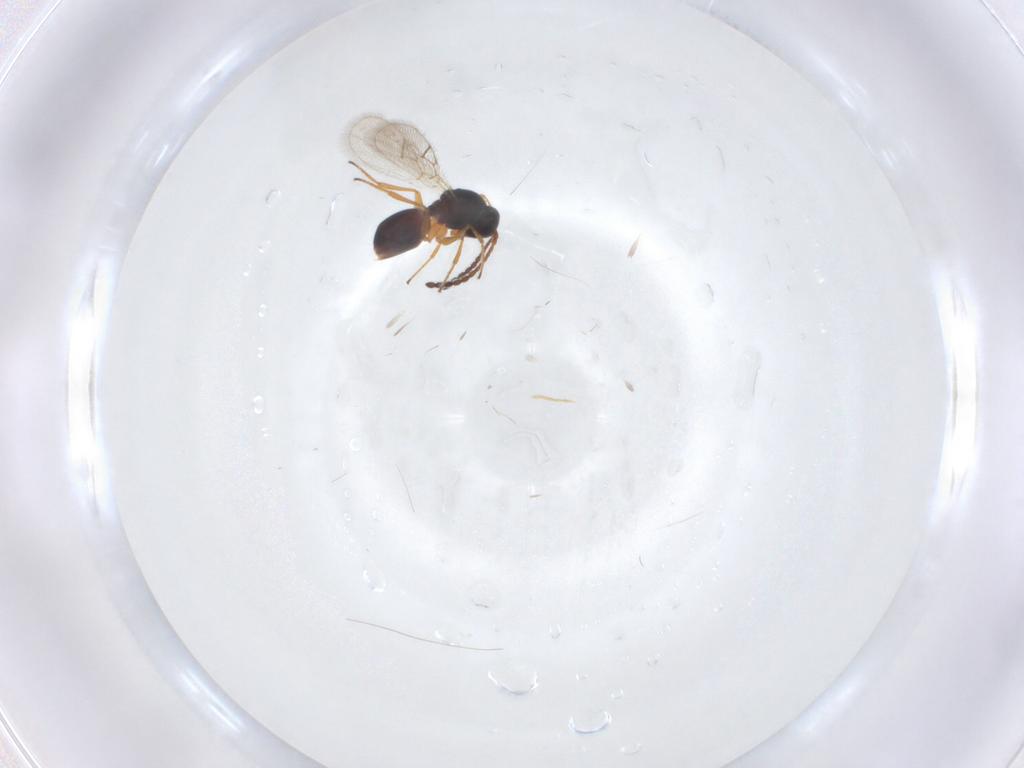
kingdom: Animalia
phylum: Arthropoda
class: Insecta
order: Hymenoptera
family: Figitidae
